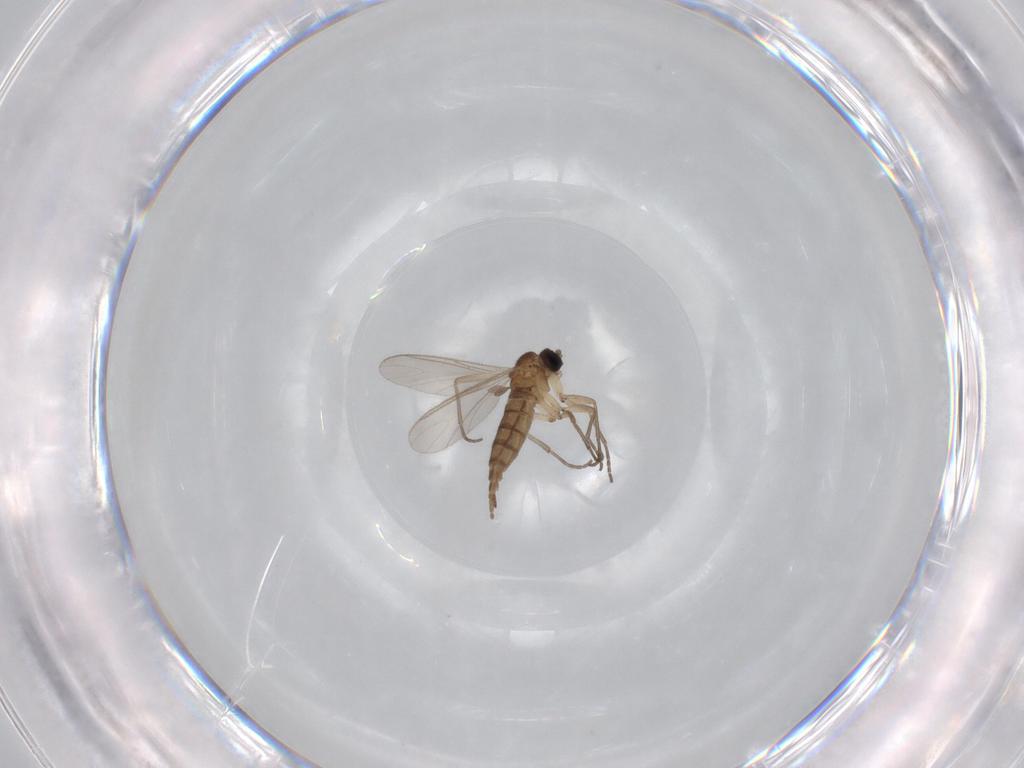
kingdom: Animalia
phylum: Arthropoda
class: Insecta
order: Diptera
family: Sciaridae
